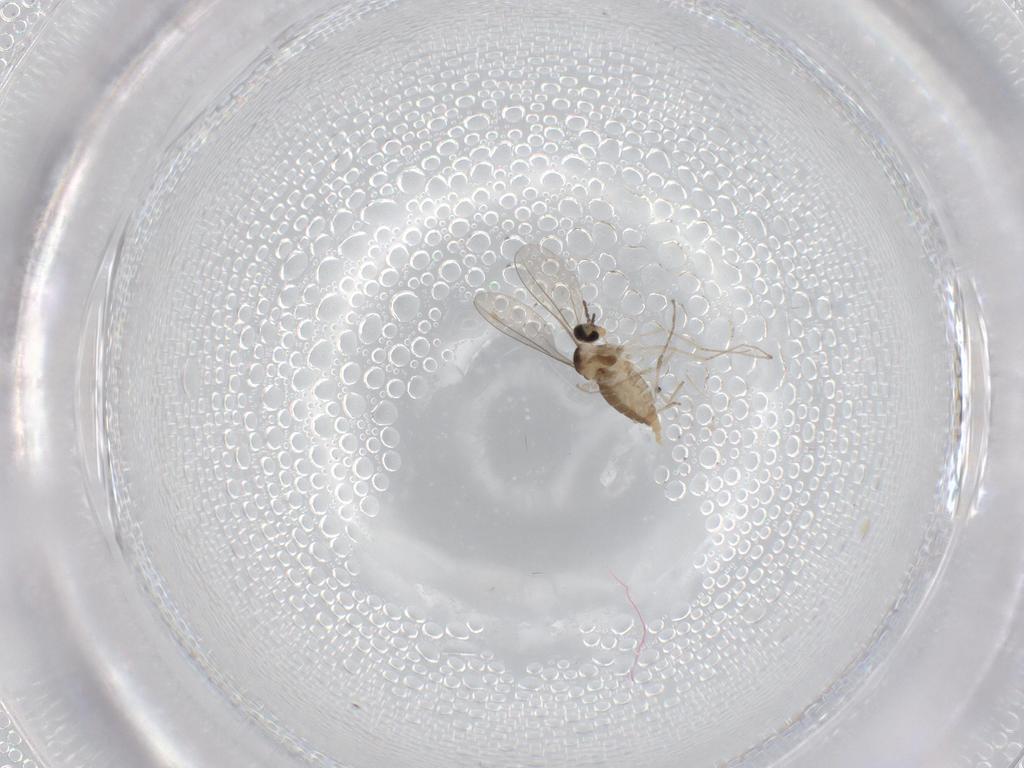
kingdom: Animalia
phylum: Arthropoda
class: Insecta
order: Diptera
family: Cecidomyiidae
